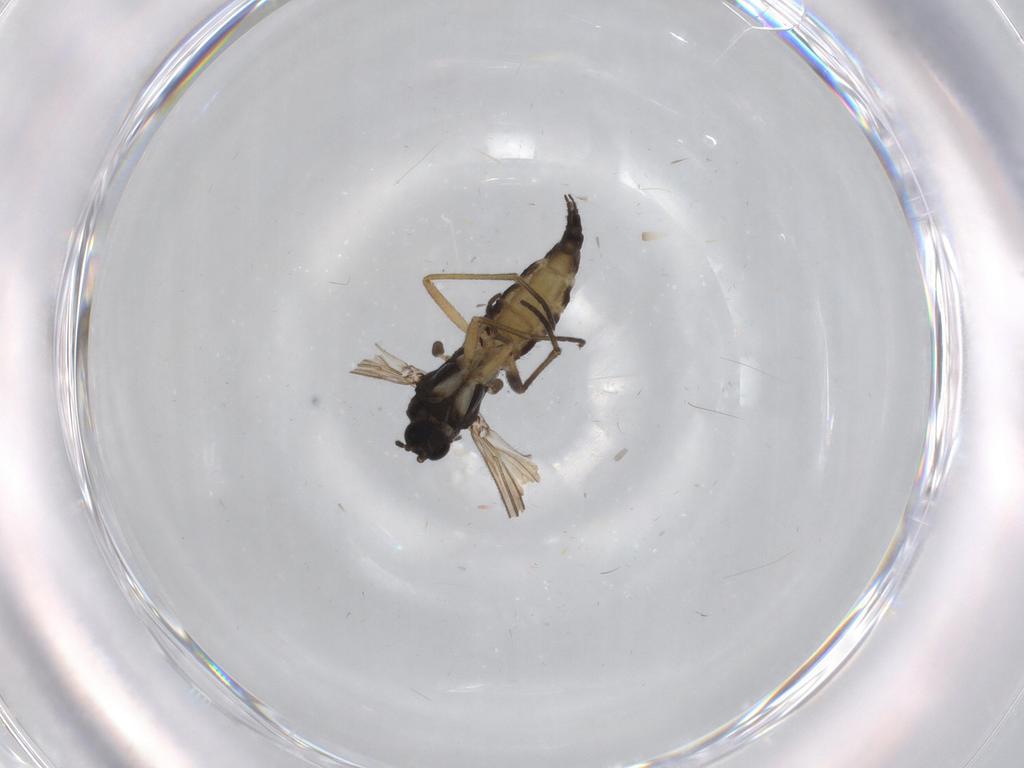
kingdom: Animalia
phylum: Arthropoda
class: Insecta
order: Diptera
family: Sciaridae
